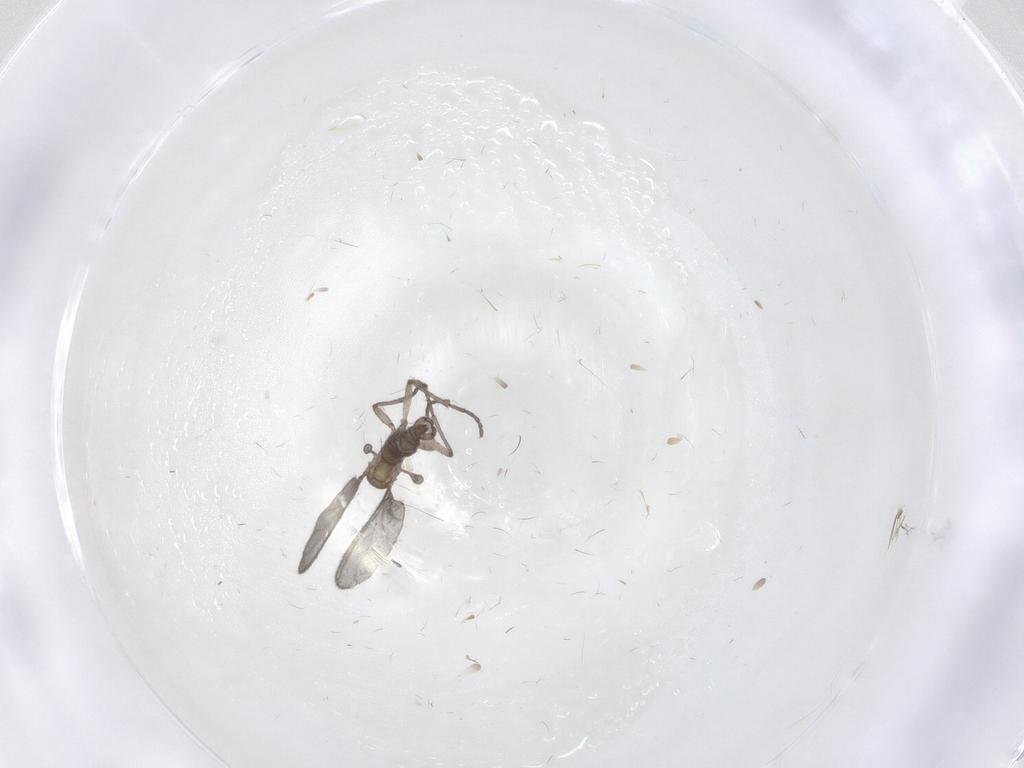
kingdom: Animalia
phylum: Arthropoda
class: Insecta
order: Diptera
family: Sciaridae
